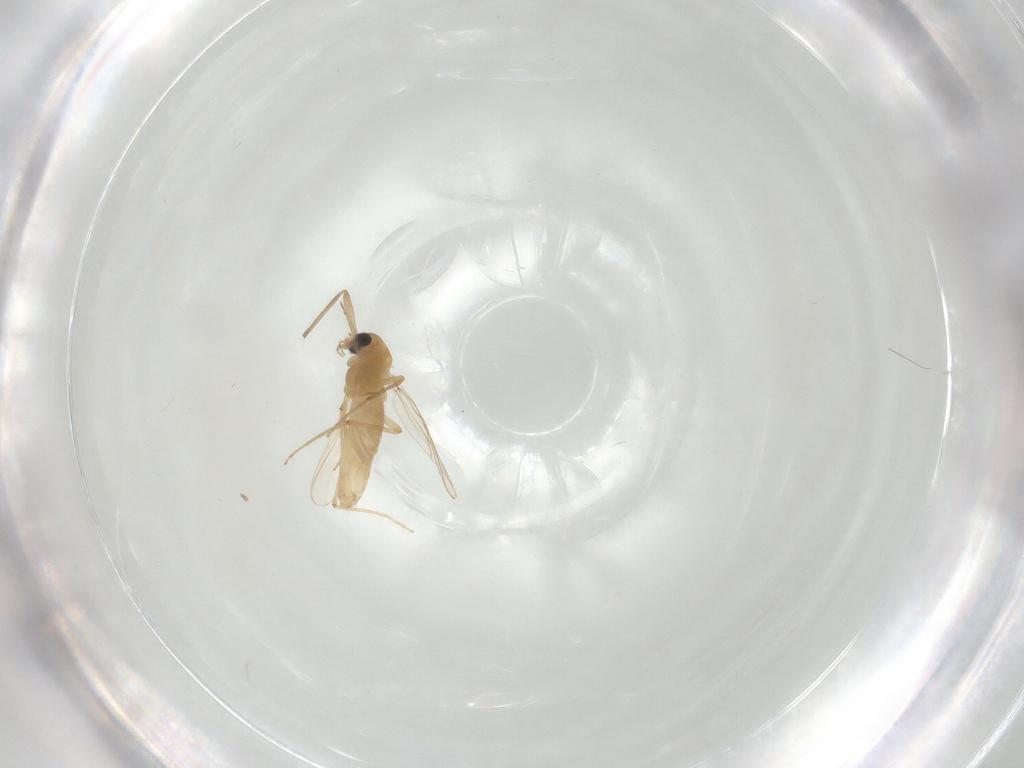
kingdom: Animalia
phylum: Arthropoda
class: Insecta
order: Diptera
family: Chironomidae
